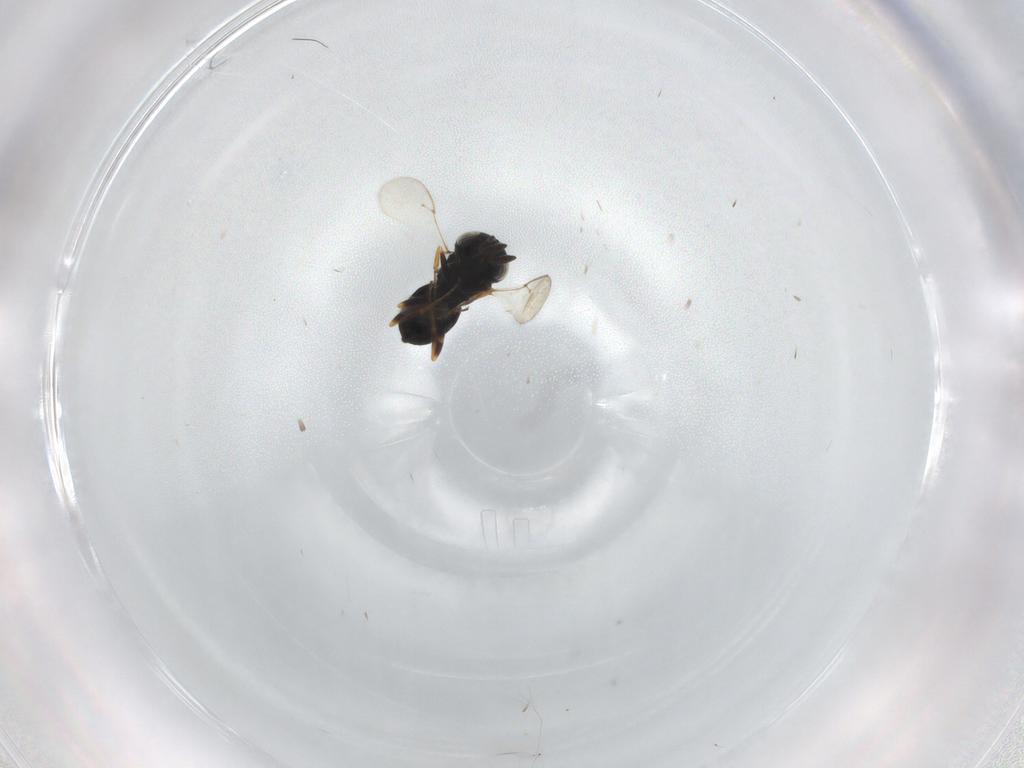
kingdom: Animalia
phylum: Arthropoda
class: Insecta
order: Hymenoptera
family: Scelionidae
